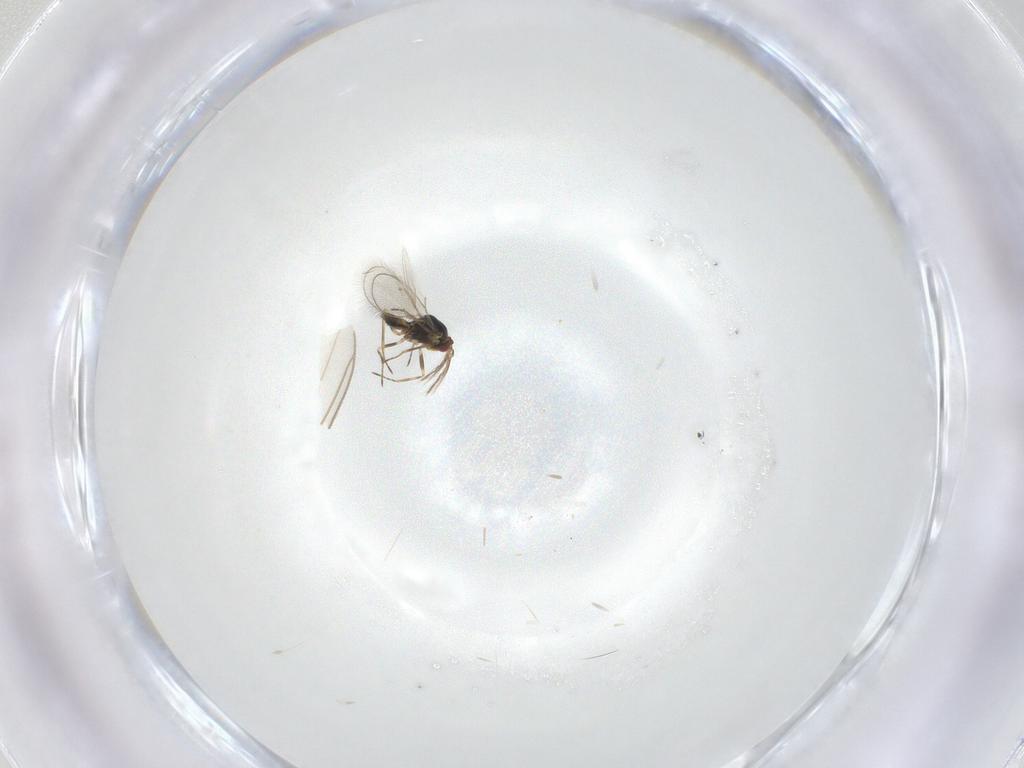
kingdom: Animalia
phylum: Arthropoda
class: Insecta
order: Hymenoptera
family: Eulophidae
